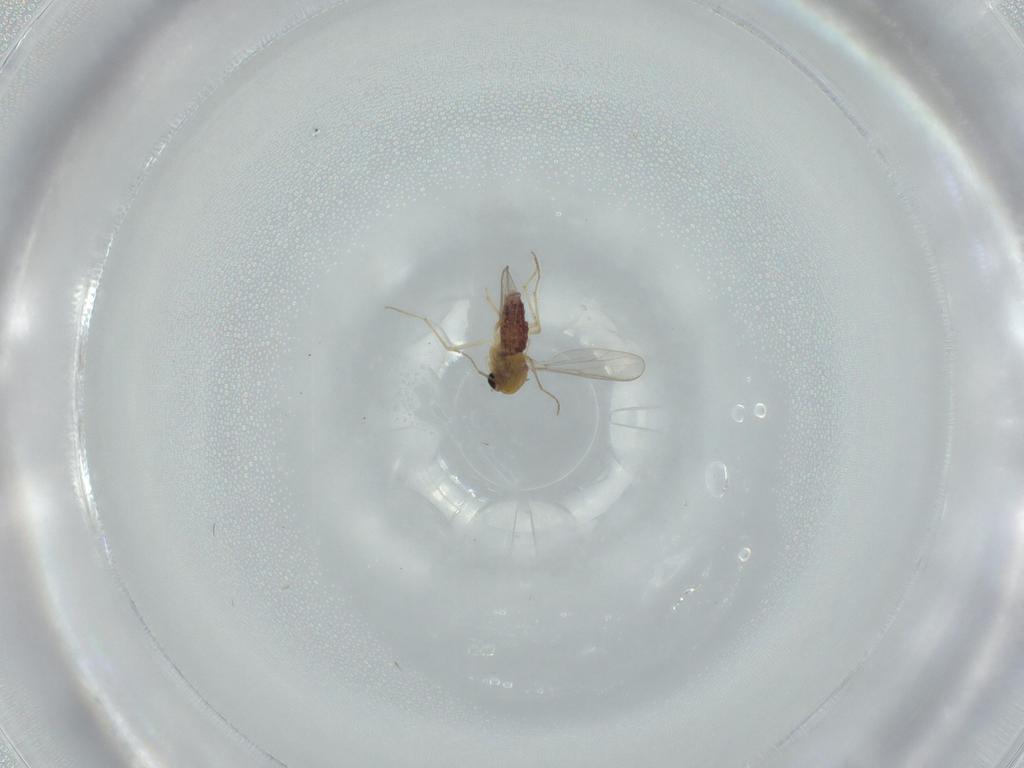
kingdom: Animalia
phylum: Arthropoda
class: Insecta
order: Diptera
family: Chironomidae
